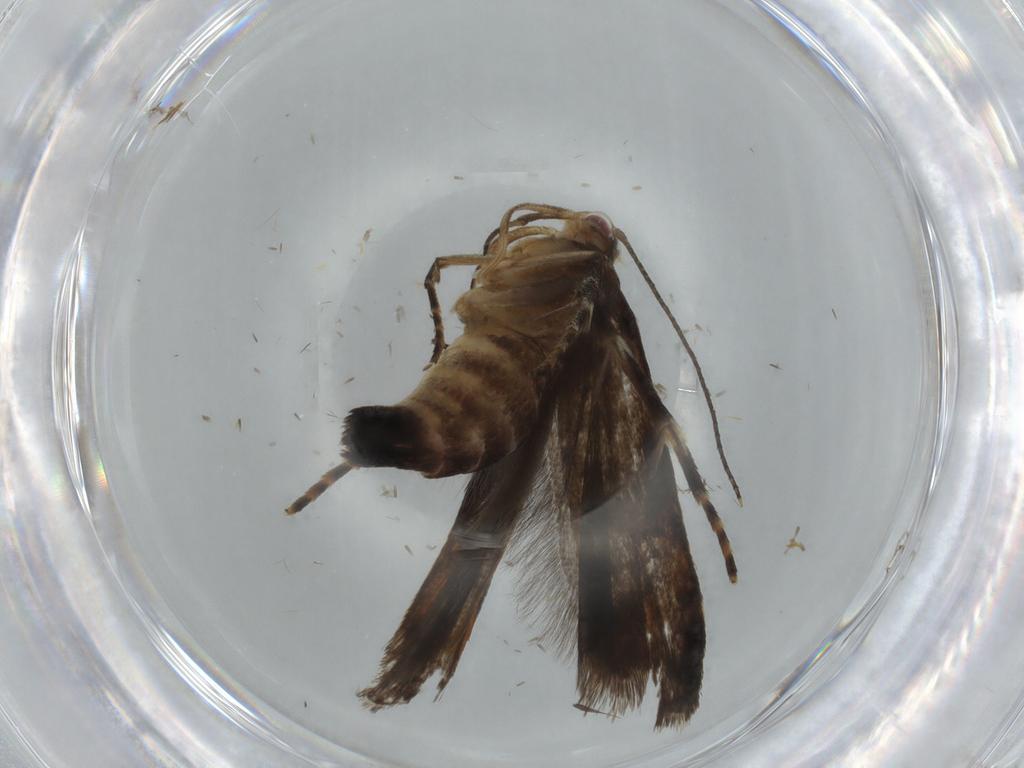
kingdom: Animalia
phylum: Arthropoda
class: Insecta
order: Lepidoptera
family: Gelechiidae
